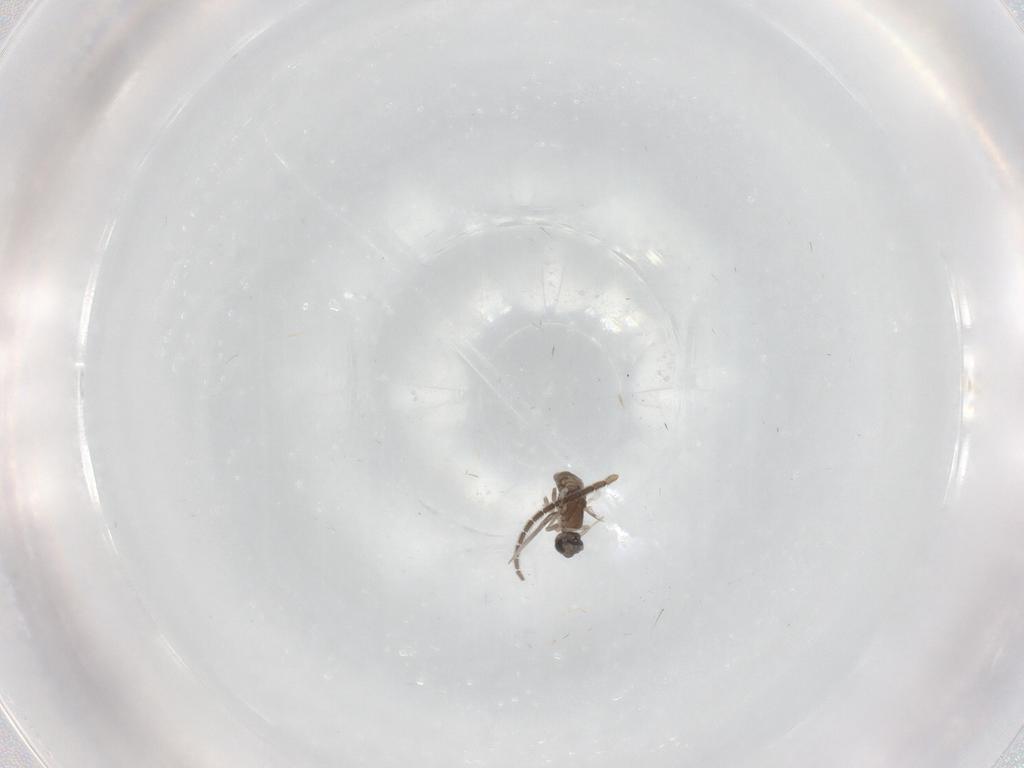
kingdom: Animalia
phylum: Arthropoda
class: Insecta
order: Diptera
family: Cecidomyiidae
